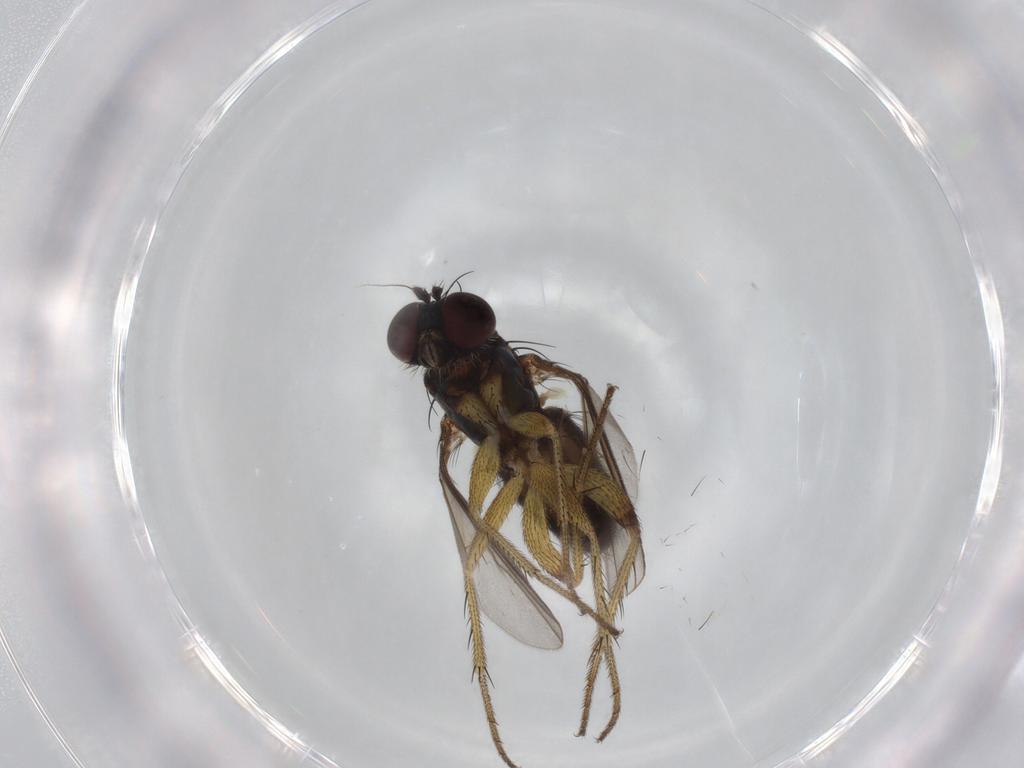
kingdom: Animalia
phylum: Arthropoda
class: Insecta
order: Diptera
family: Dolichopodidae
